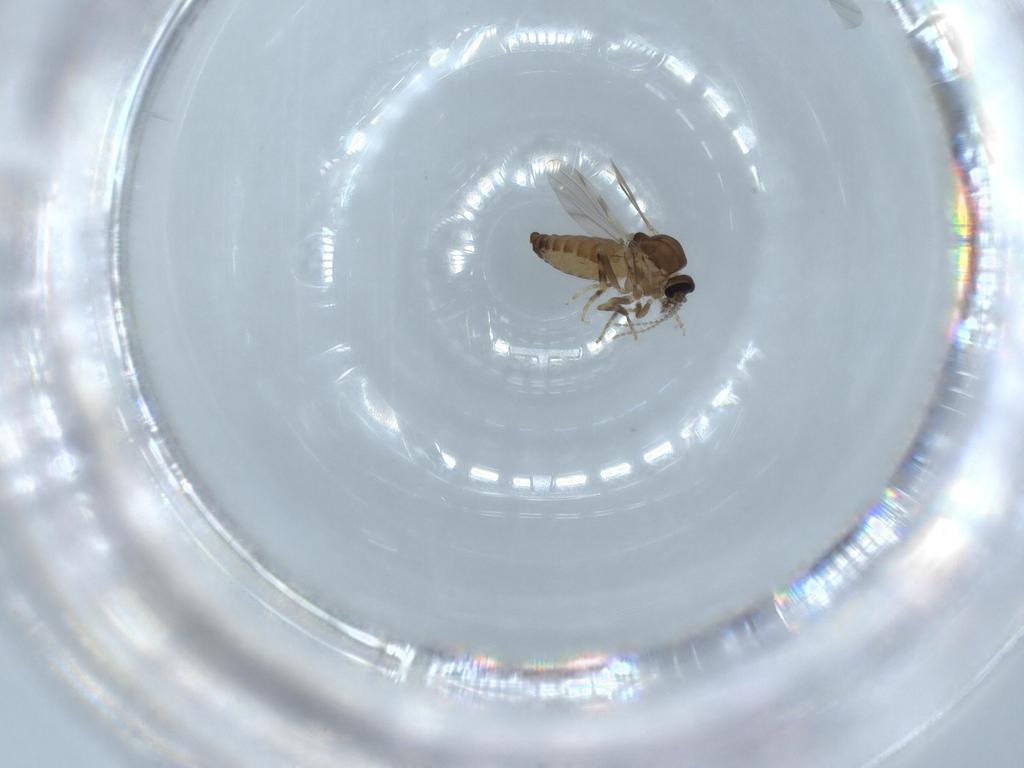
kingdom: Animalia
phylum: Arthropoda
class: Insecta
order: Diptera
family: Ceratopogonidae
